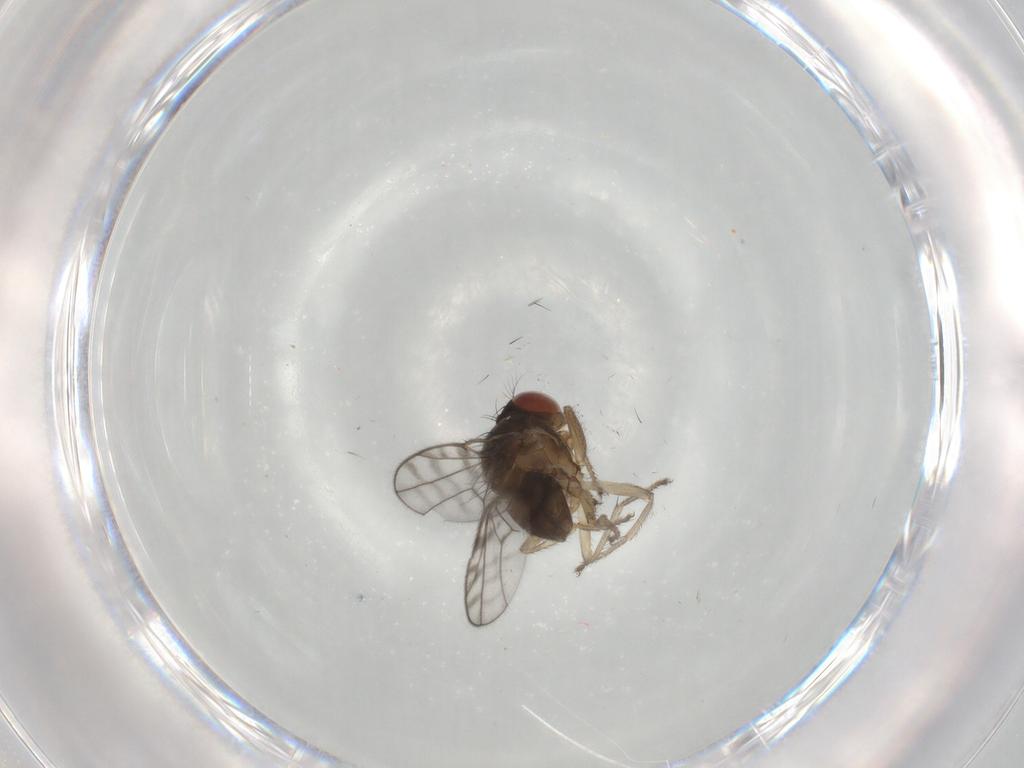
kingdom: Animalia
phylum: Arthropoda
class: Insecta
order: Diptera
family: Ephydridae
